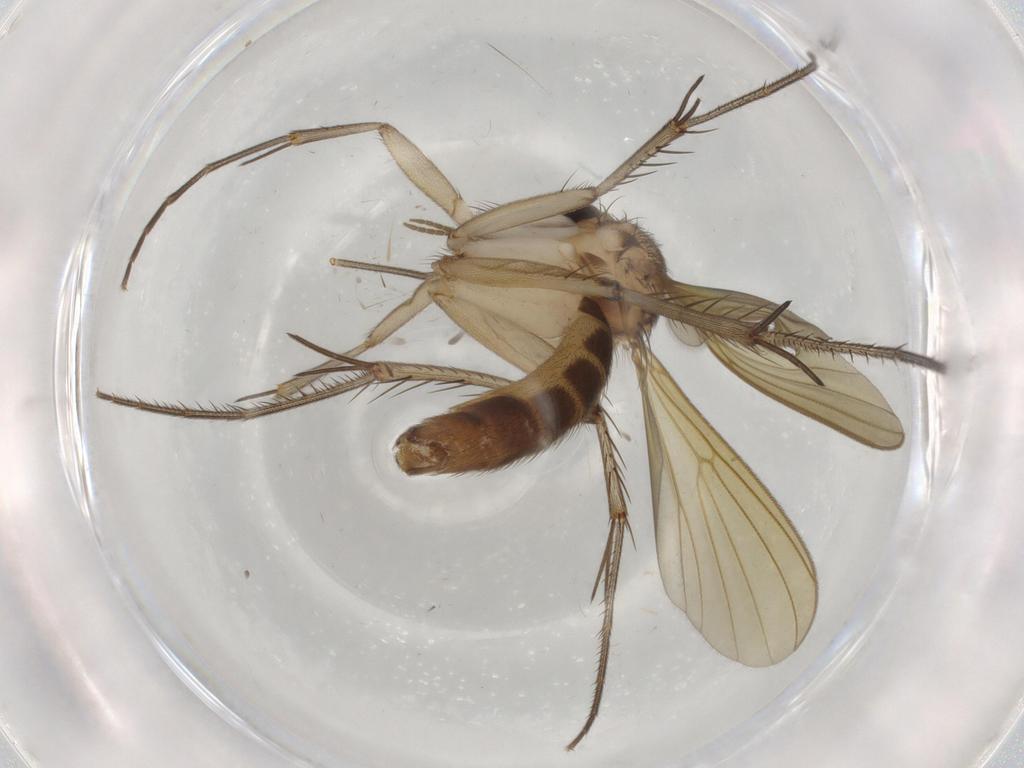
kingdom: Animalia
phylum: Arthropoda
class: Insecta
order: Diptera
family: Mycetophilidae
